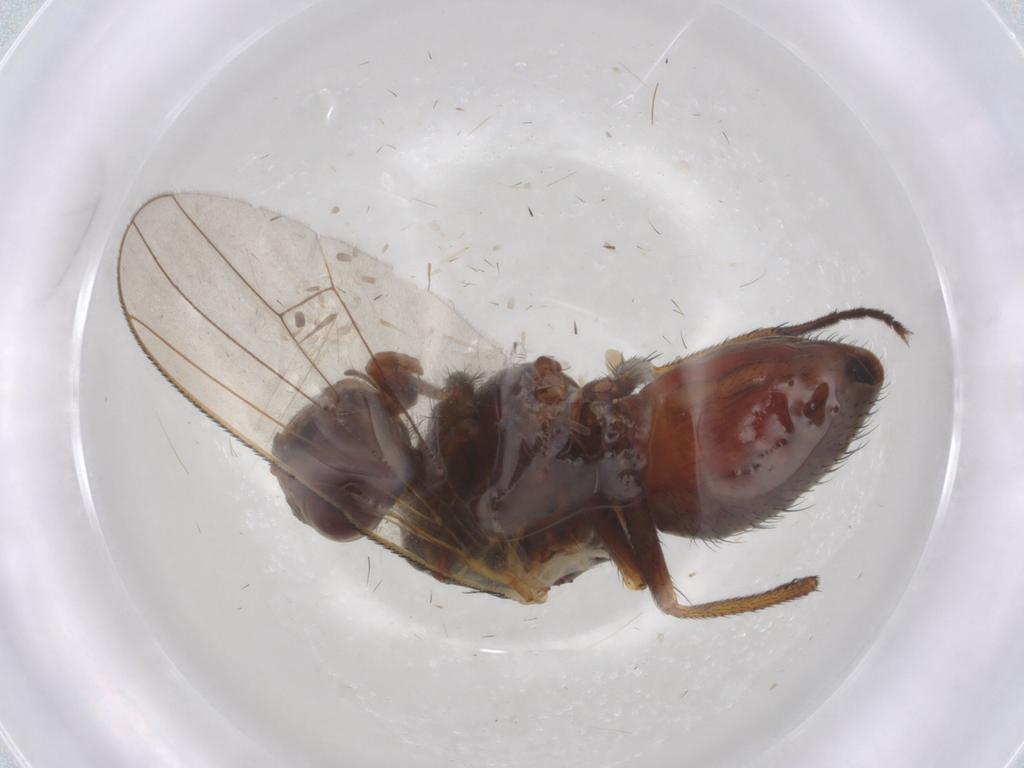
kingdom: Animalia
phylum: Arthropoda
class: Insecta
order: Diptera
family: Anthomyiidae
